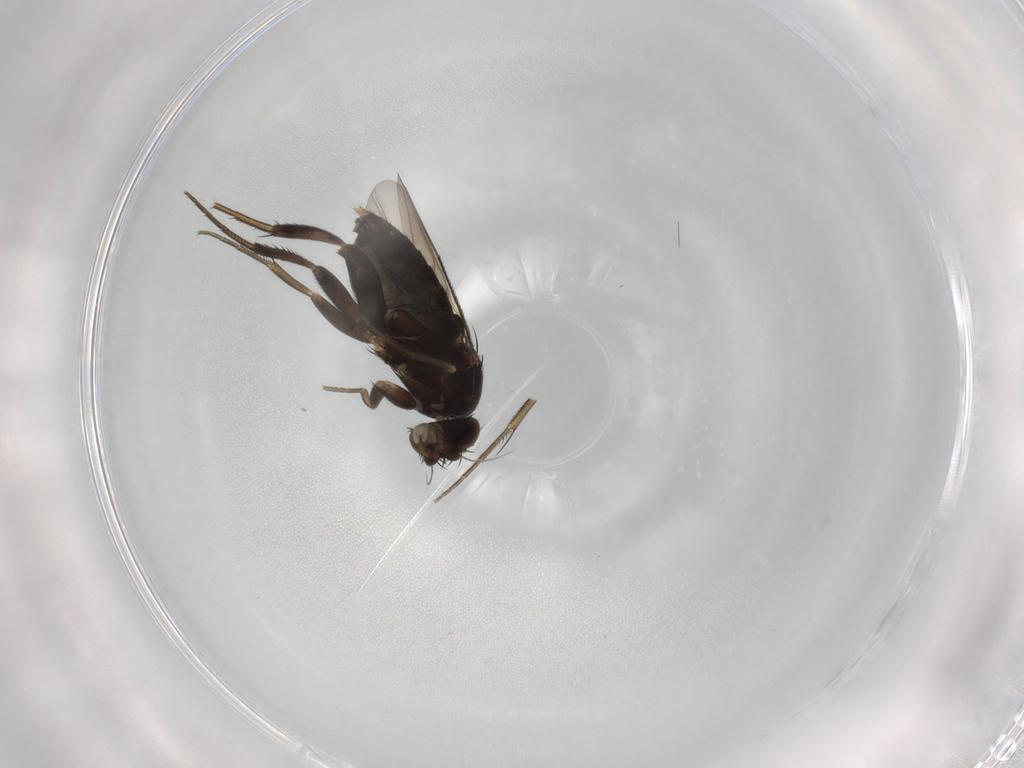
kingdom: Animalia
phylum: Arthropoda
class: Insecta
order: Diptera
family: Phoridae
